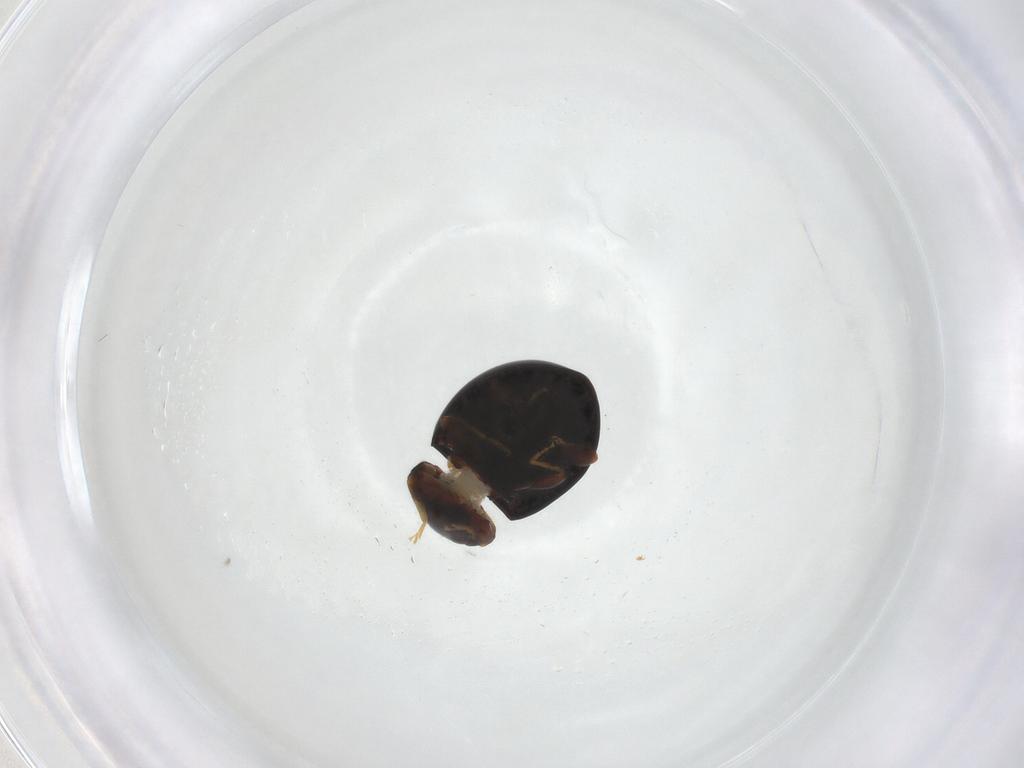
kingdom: Animalia
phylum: Arthropoda
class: Insecta
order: Coleoptera
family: Coccinellidae
